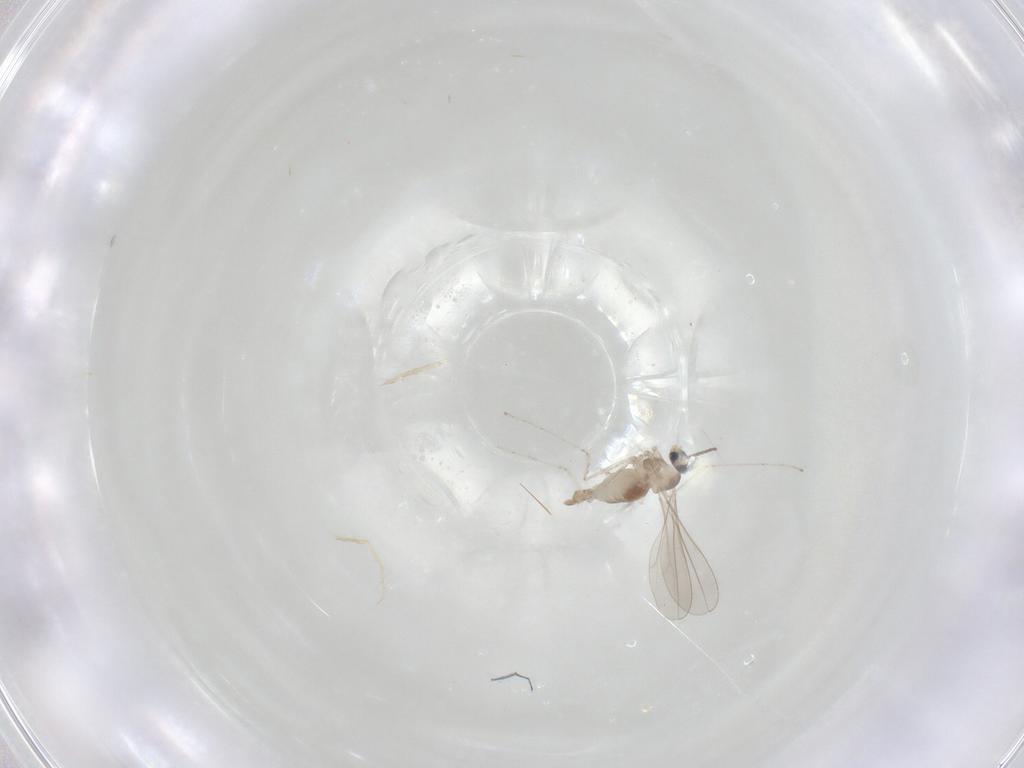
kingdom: Animalia
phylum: Arthropoda
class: Insecta
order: Diptera
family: Cecidomyiidae
